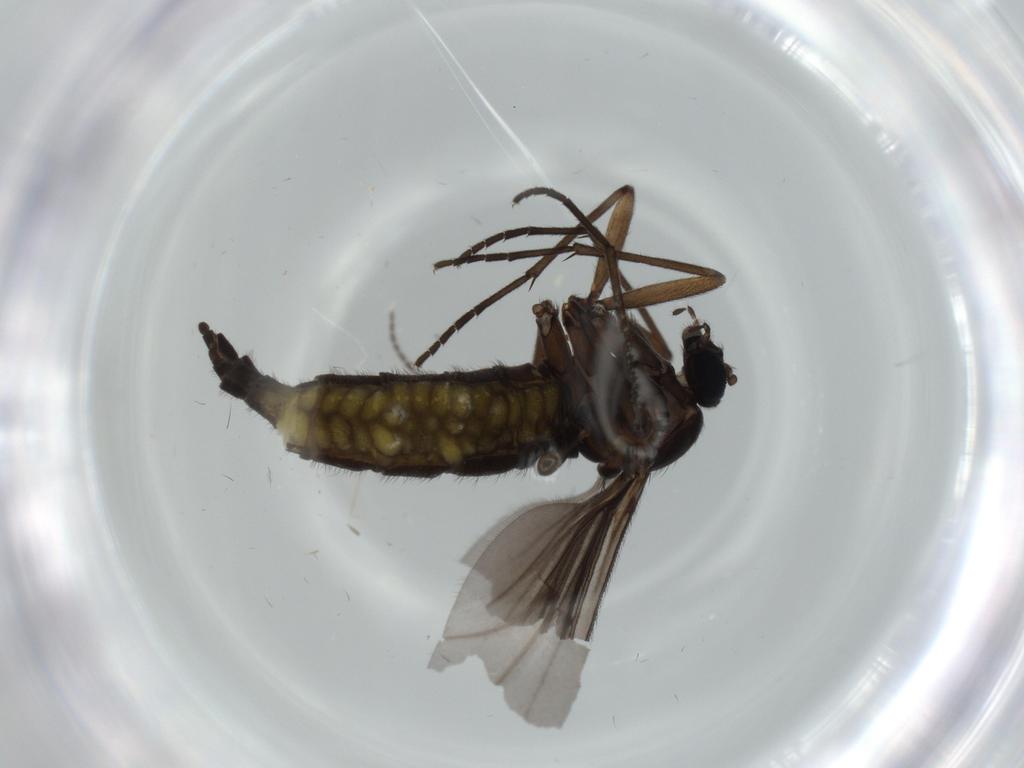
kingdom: Animalia
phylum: Arthropoda
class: Insecta
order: Diptera
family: Sciaridae
